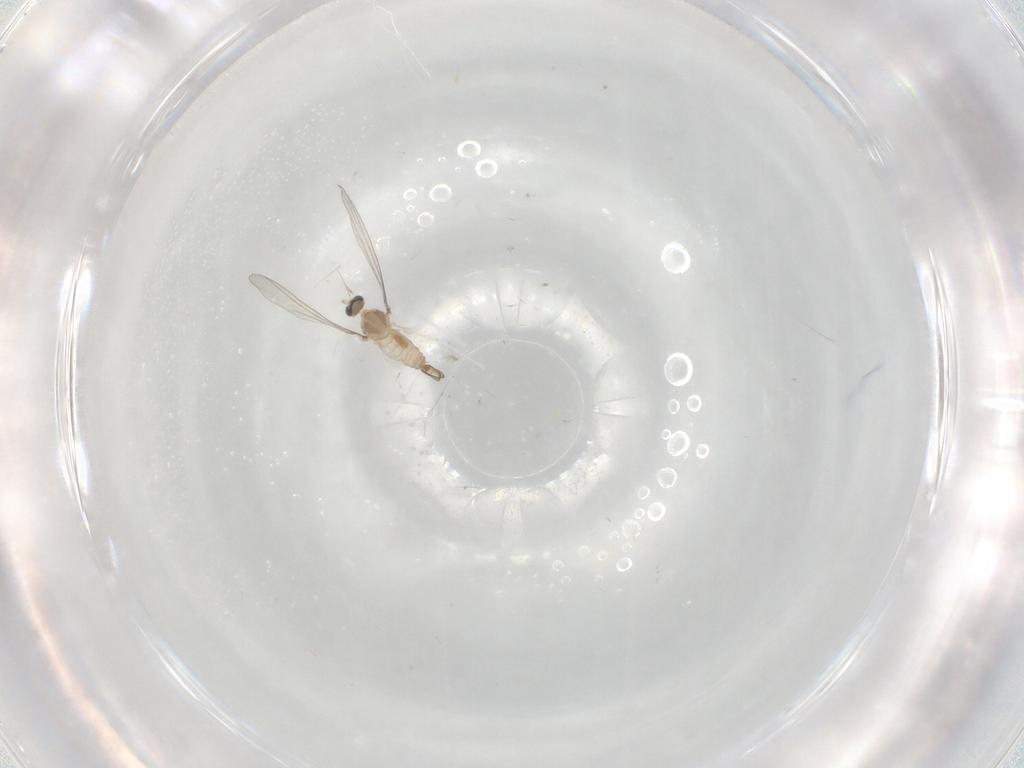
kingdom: Animalia
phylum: Arthropoda
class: Insecta
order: Diptera
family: Cecidomyiidae
